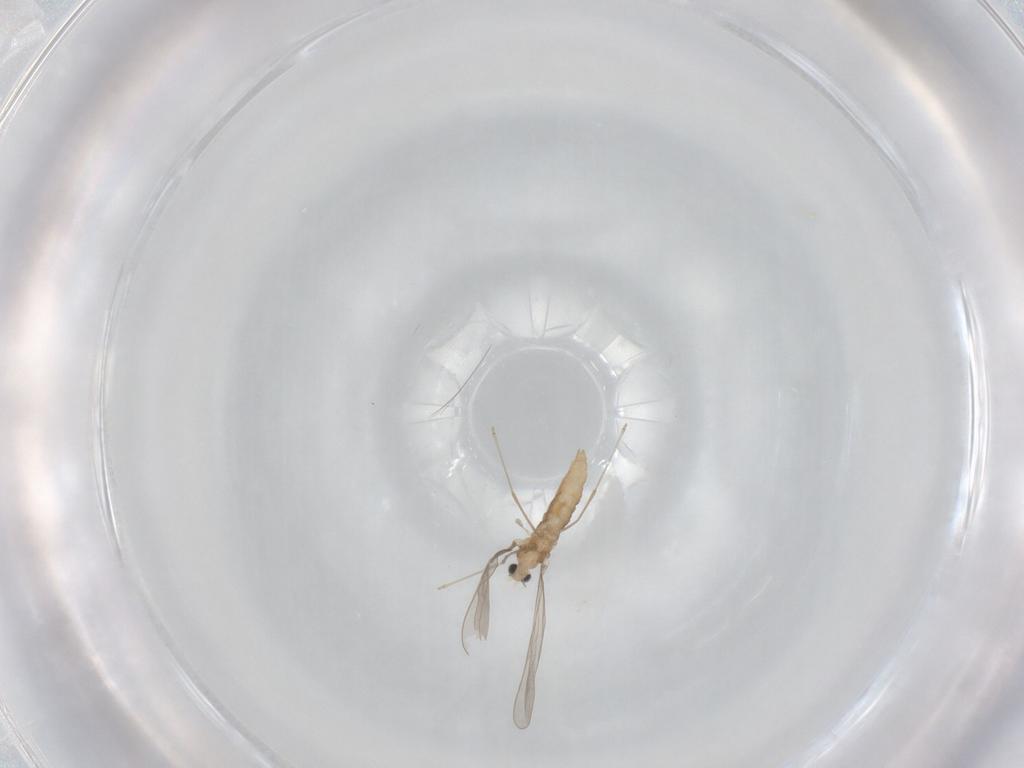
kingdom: Animalia
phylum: Arthropoda
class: Insecta
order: Diptera
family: Cecidomyiidae
